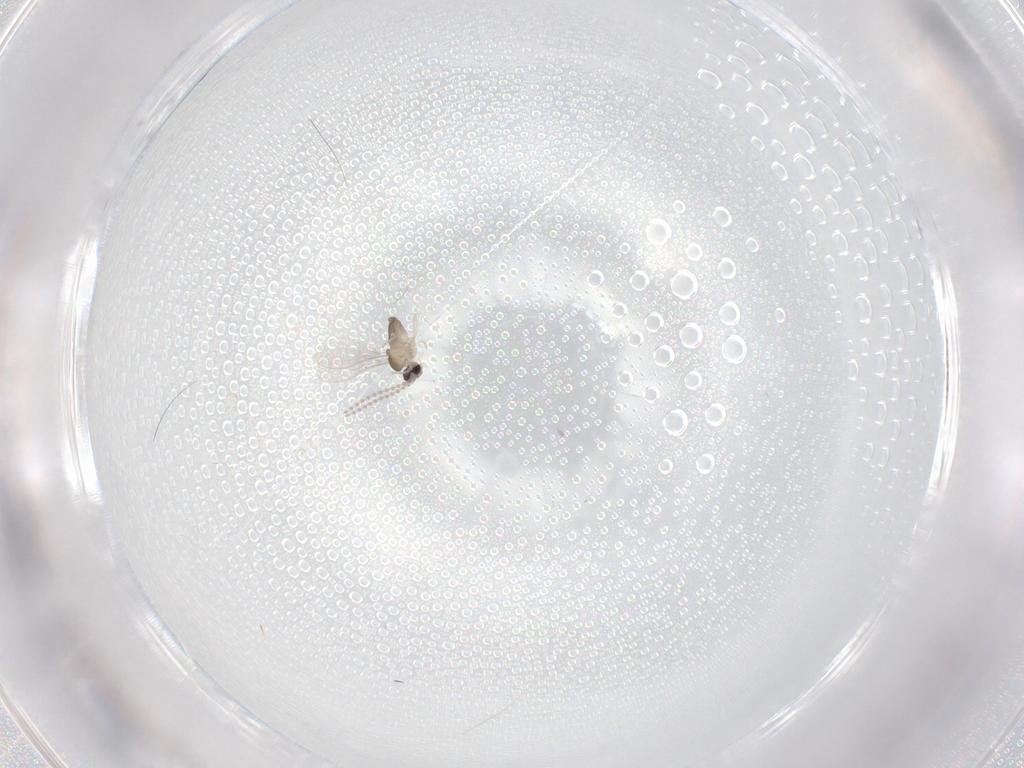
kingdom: Animalia
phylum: Arthropoda
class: Insecta
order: Diptera
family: Cecidomyiidae
